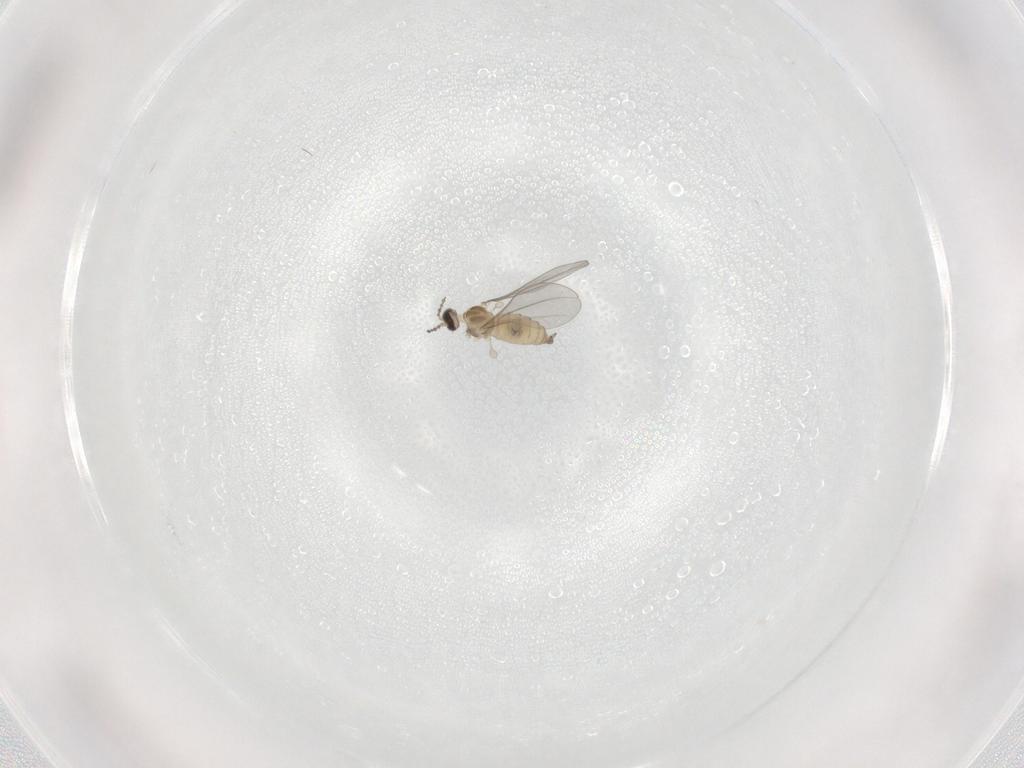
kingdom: Animalia
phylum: Arthropoda
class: Insecta
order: Diptera
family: Cecidomyiidae
